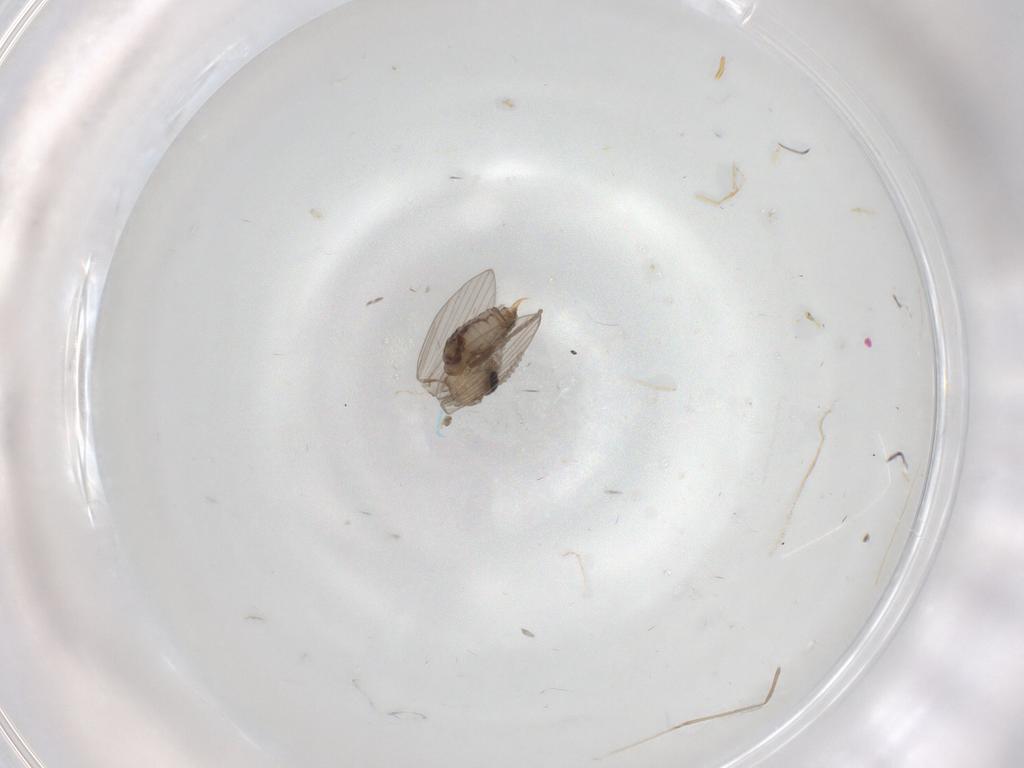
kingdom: Animalia
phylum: Arthropoda
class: Insecta
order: Diptera
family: Psychodidae
